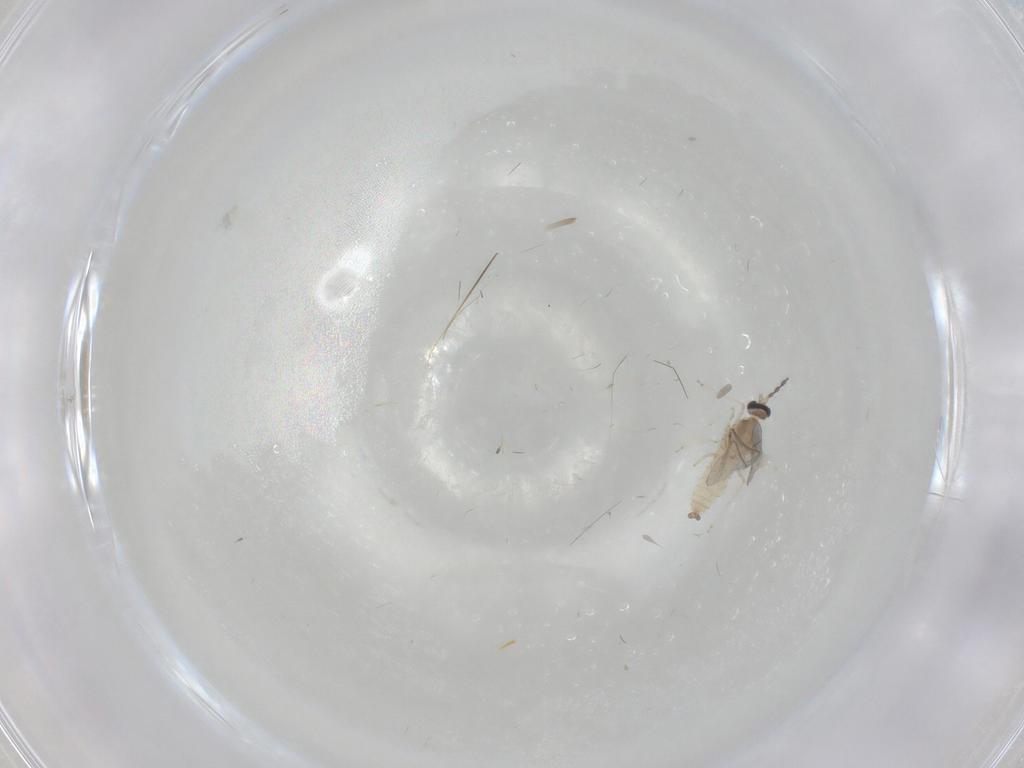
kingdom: Animalia
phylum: Arthropoda
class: Insecta
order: Diptera
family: Cecidomyiidae
